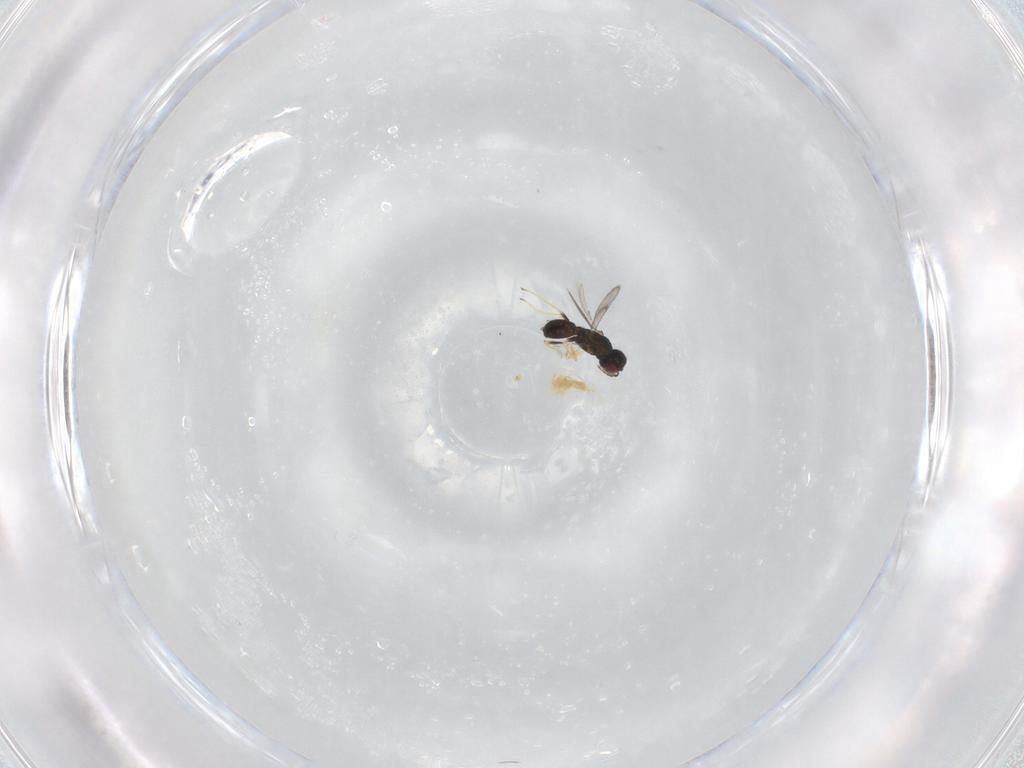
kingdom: Animalia
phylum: Arthropoda
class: Insecta
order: Hymenoptera
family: Eulophidae
